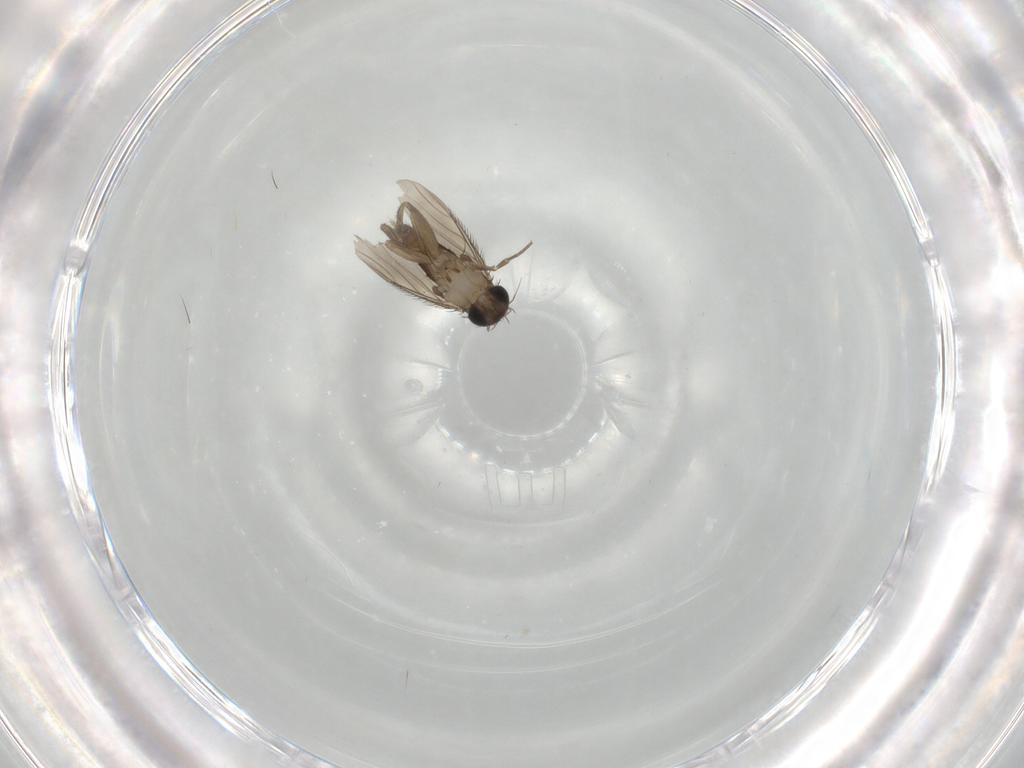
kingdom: Animalia
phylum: Arthropoda
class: Insecta
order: Diptera
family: Phoridae
